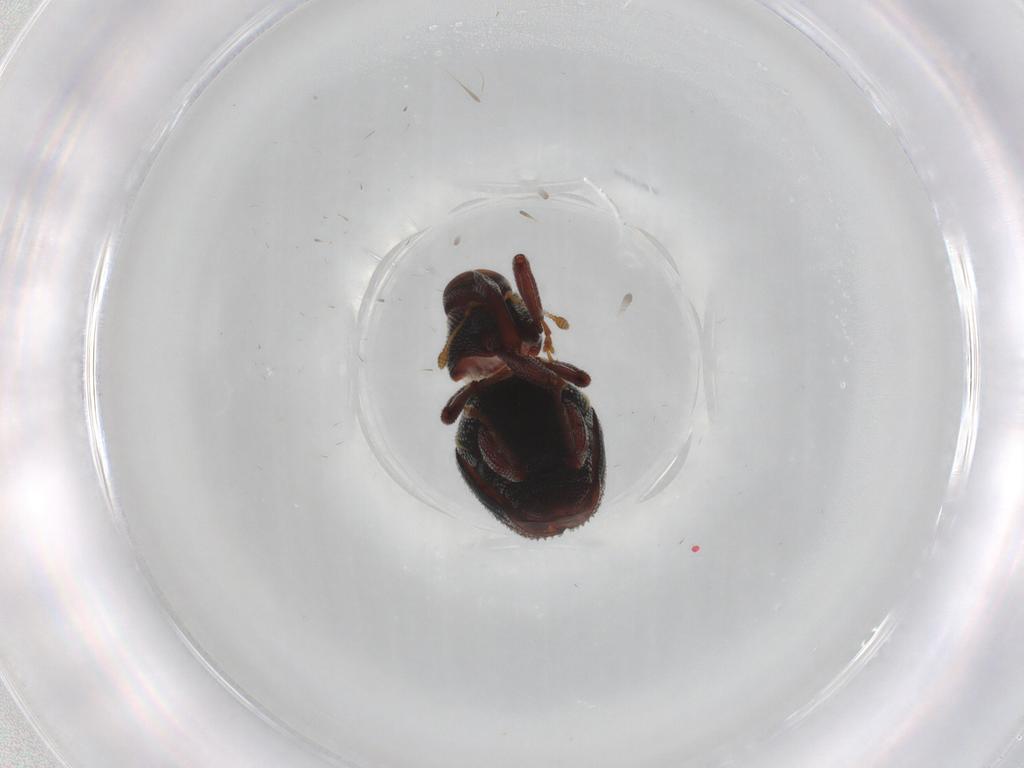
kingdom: Animalia
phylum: Arthropoda
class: Insecta
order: Coleoptera
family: Curculionidae
